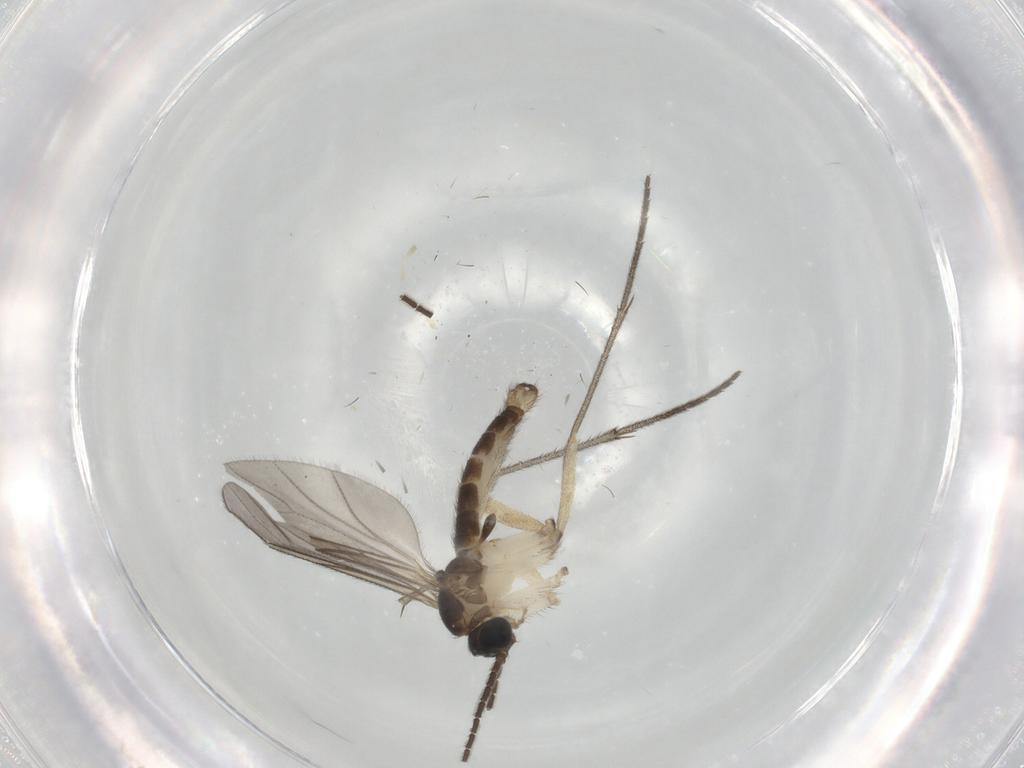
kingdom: Animalia
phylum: Arthropoda
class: Insecta
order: Diptera
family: Sciaridae
